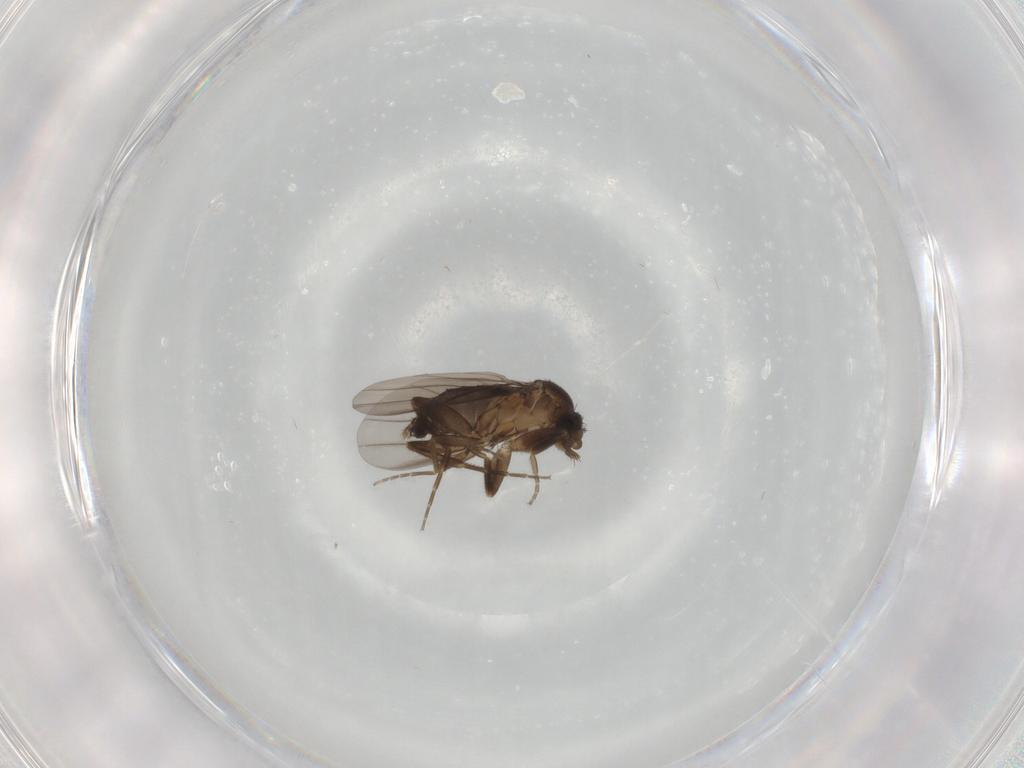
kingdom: Animalia
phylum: Arthropoda
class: Insecta
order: Diptera
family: Phoridae
